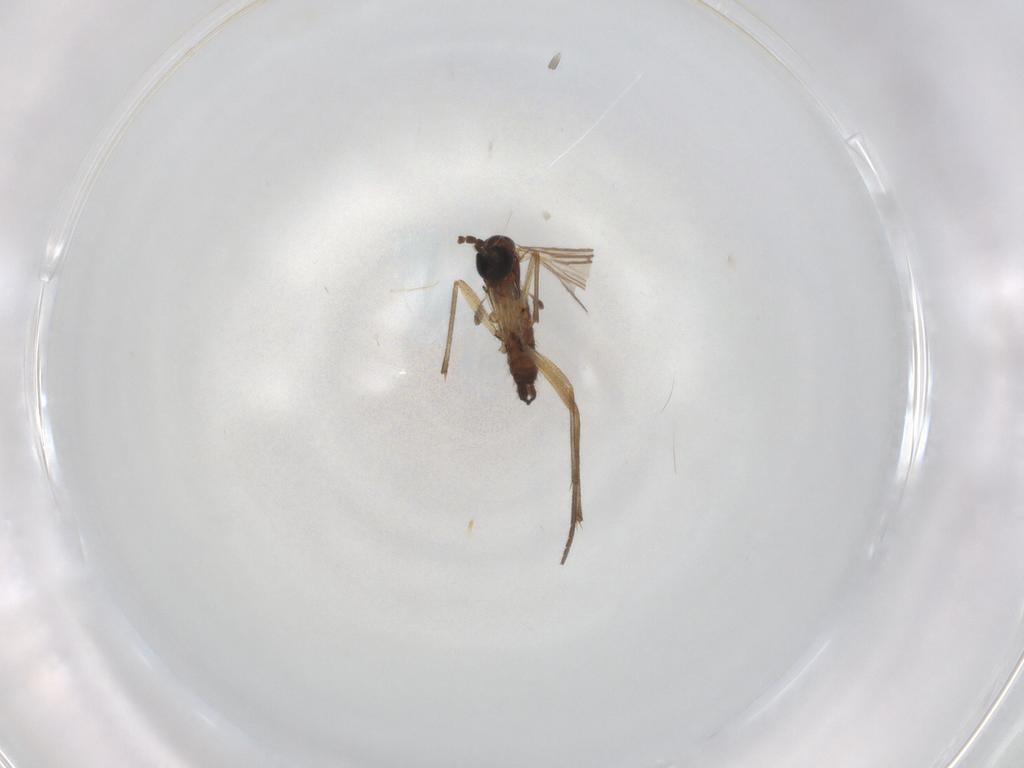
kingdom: Animalia
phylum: Arthropoda
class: Insecta
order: Diptera
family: Sciaridae
